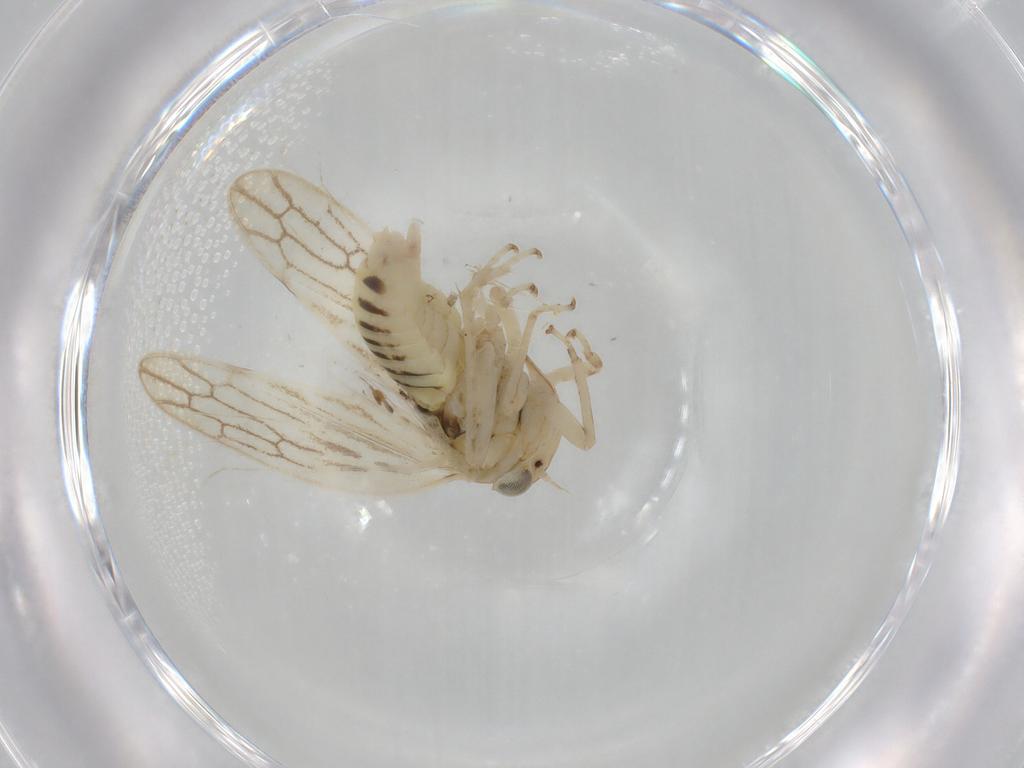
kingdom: Animalia
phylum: Arthropoda
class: Insecta
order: Hemiptera
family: Cicadellidae
